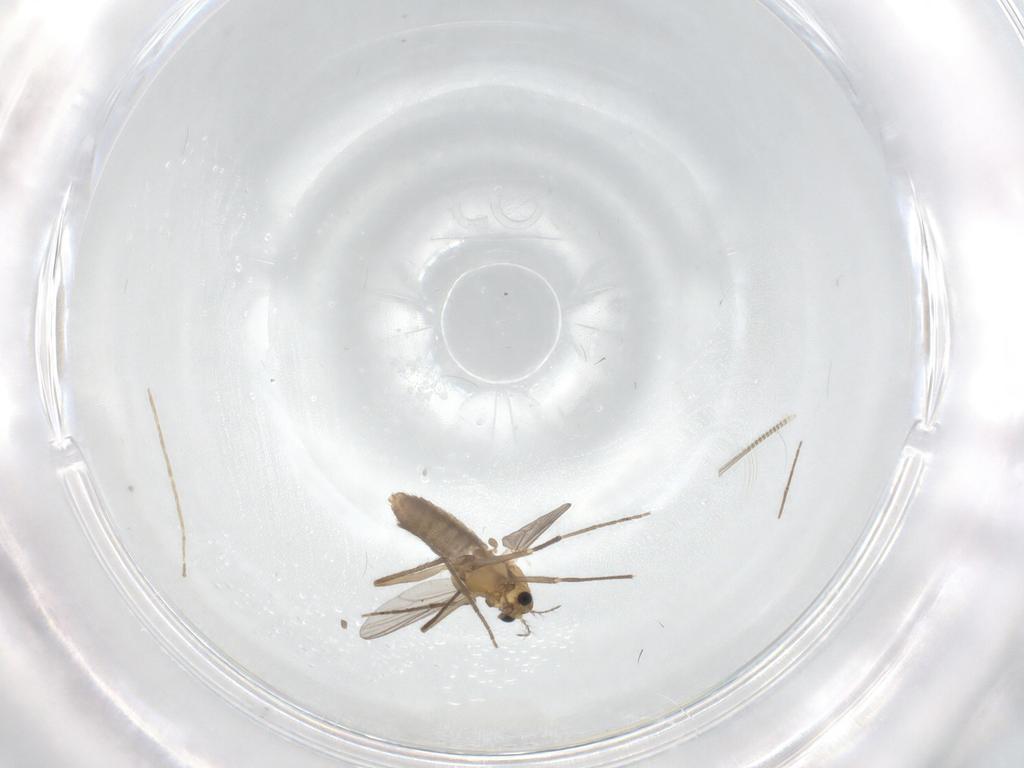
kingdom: Animalia
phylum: Arthropoda
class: Insecta
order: Diptera
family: Chironomidae
